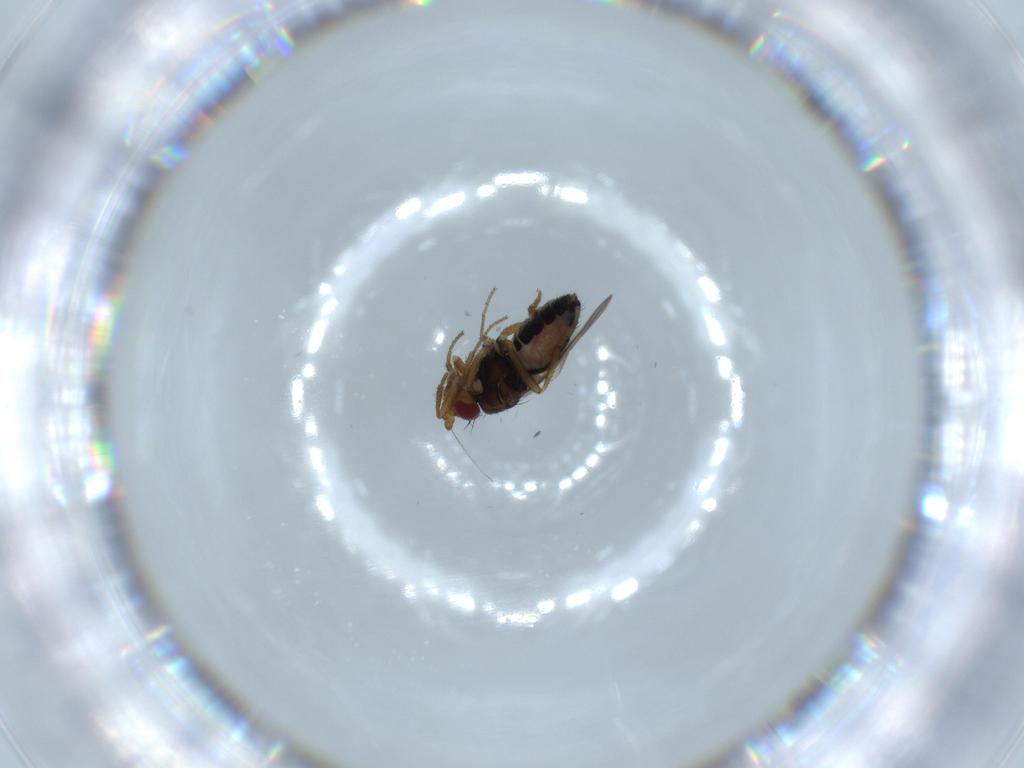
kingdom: Animalia
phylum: Arthropoda
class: Insecta
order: Diptera
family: Sphaeroceridae
